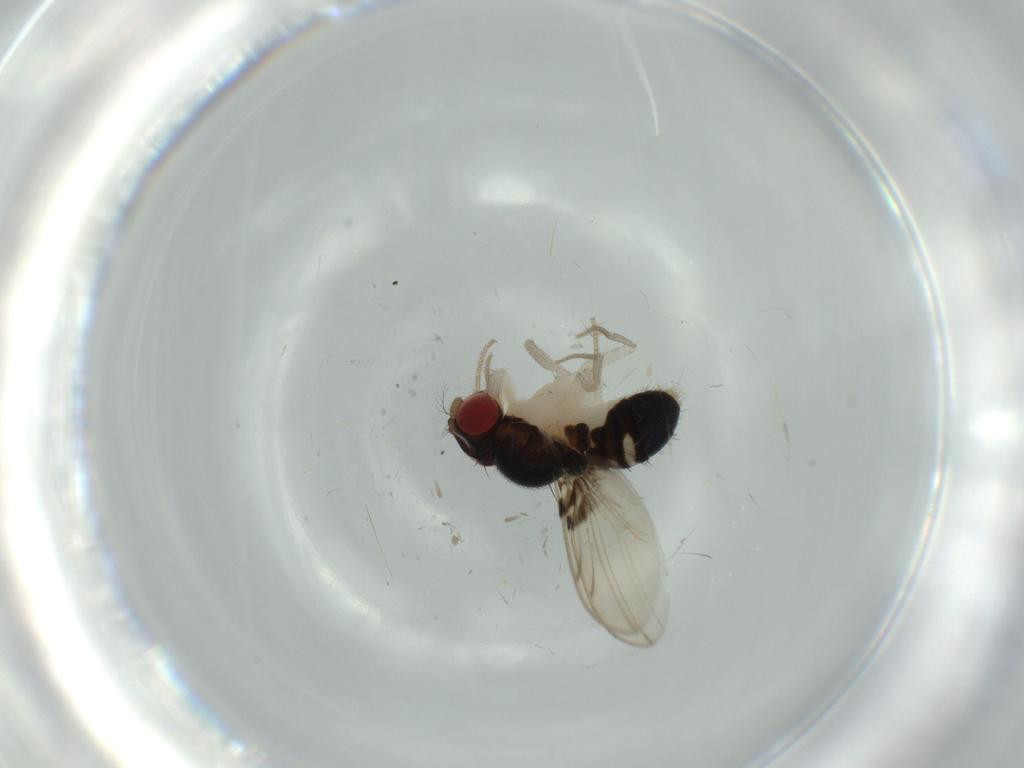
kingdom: Animalia
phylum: Arthropoda
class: Insecta
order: Diptera
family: Drosophilidae
